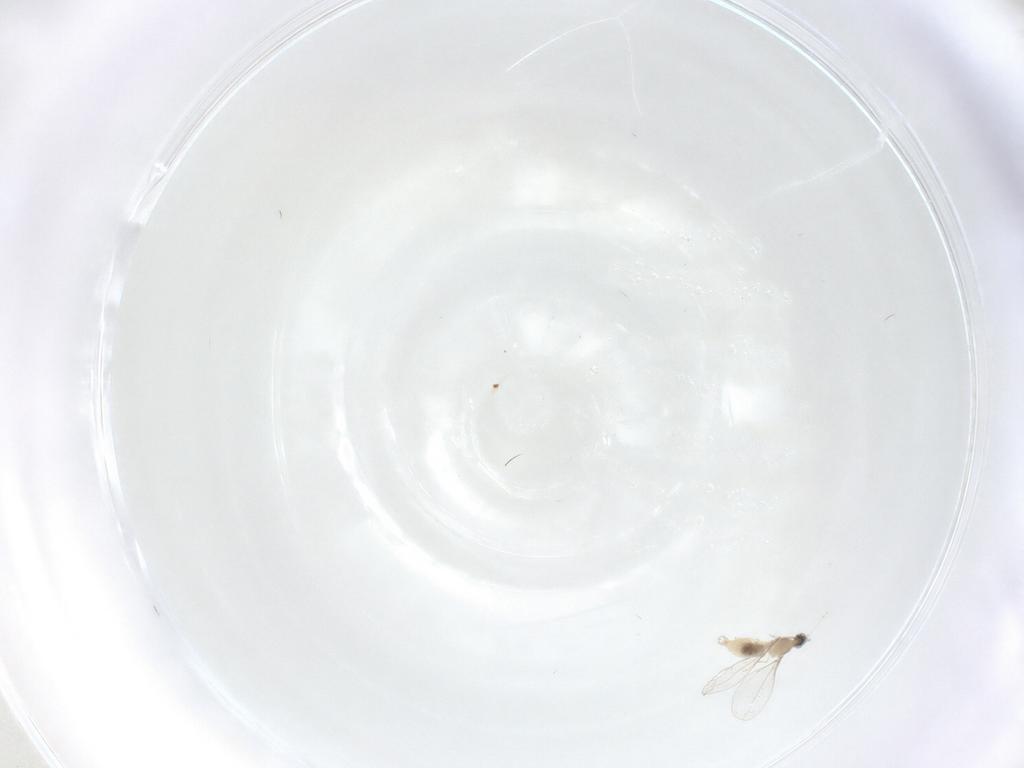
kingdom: Animalia
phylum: Arthropoda
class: Insecta
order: Diptera
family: Cecidomyiidae
